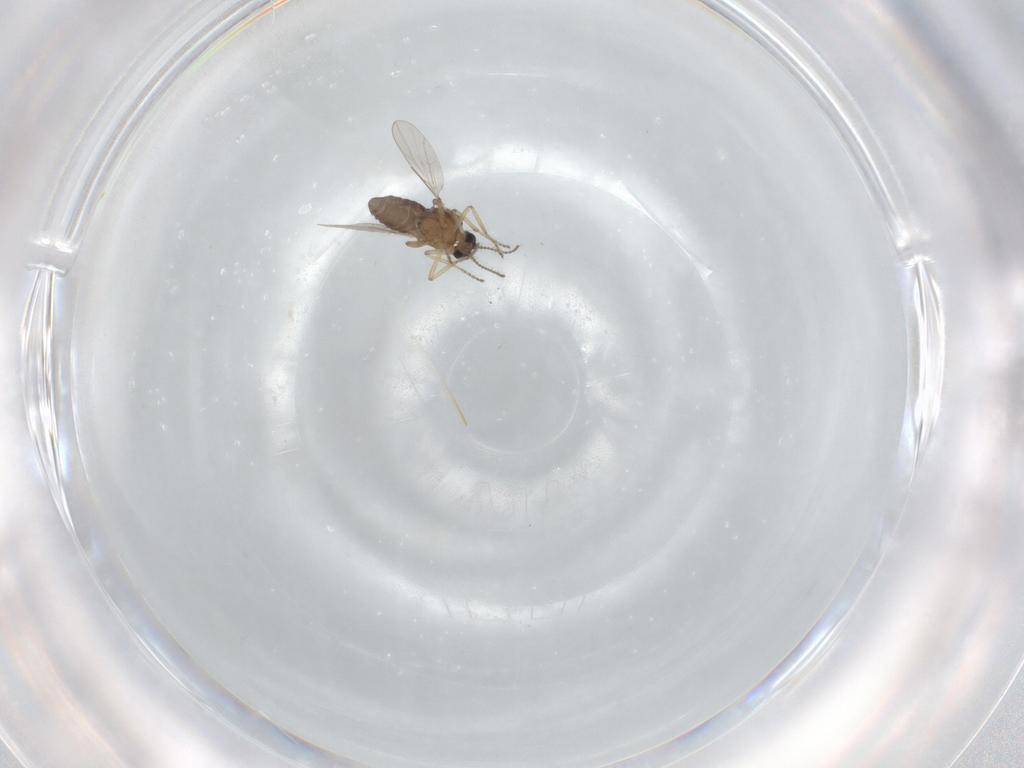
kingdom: Animalia
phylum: Arthropoda
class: Insecta
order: Diptera
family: Ceratopogonidae
